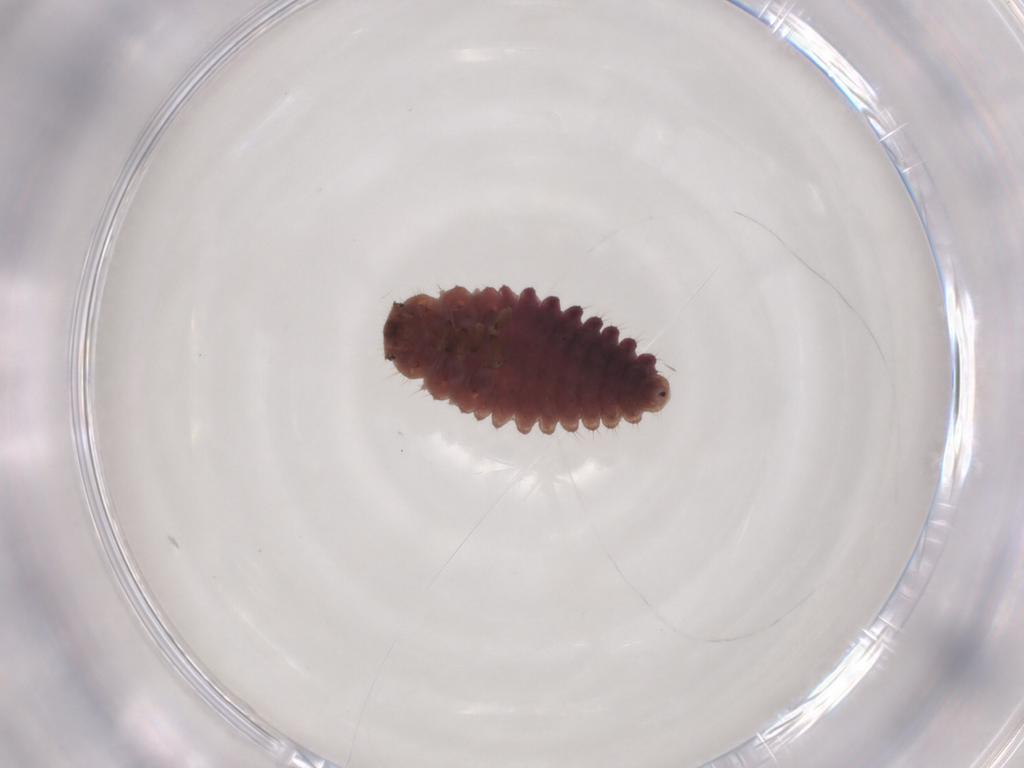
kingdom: Animalia
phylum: Arthropoda
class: Insecta
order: Coleoptera
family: Coccinellidae
